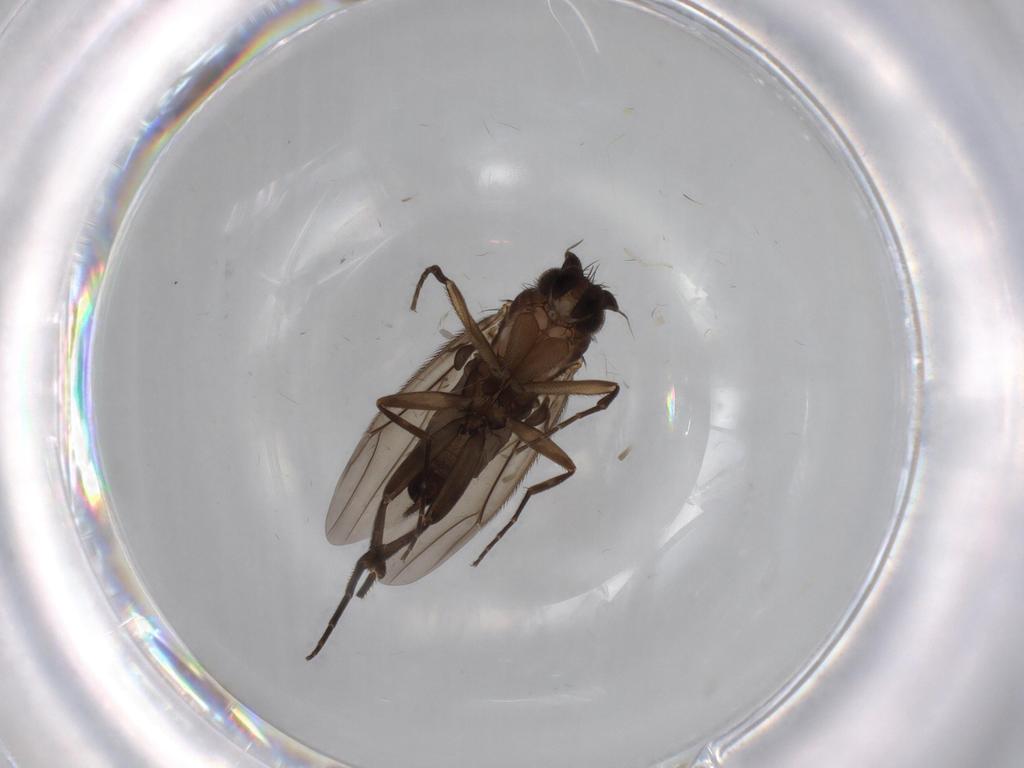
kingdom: Animalia
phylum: Arthropoda
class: Insecta
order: Diptera
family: Phoridae
